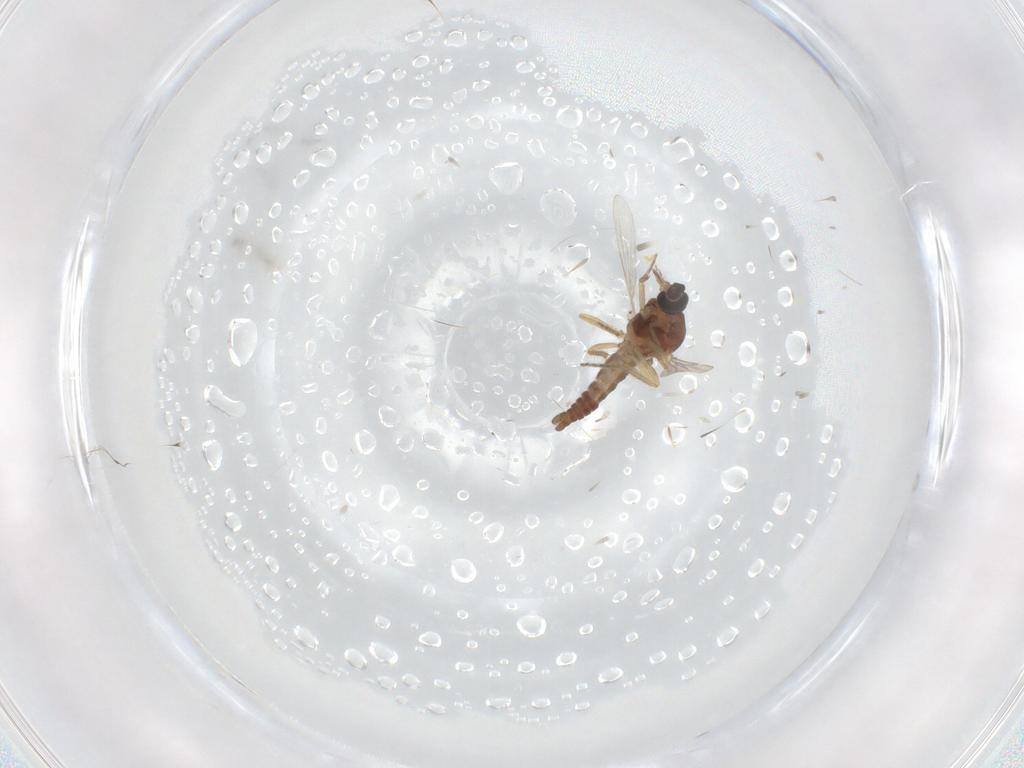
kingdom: Animalia
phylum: Arthropoda
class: Insecta
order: Diptera
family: Ceratopogonidae
